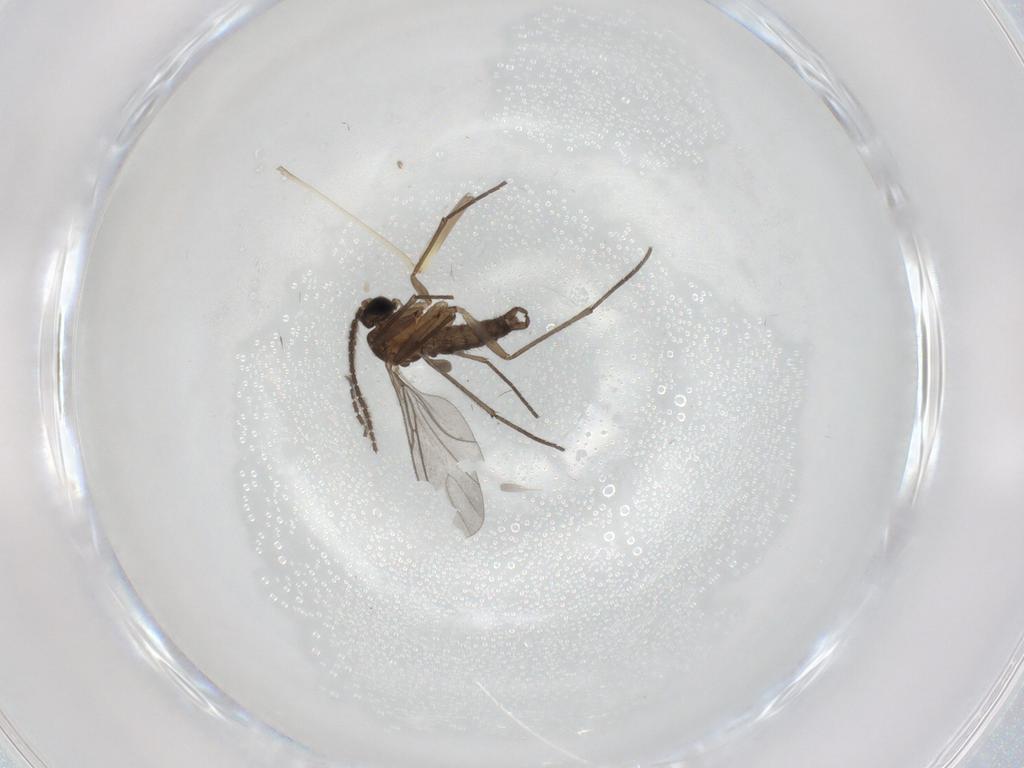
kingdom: Animalia
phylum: Arthropoda
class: Insecta
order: Diptera
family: Sciaridae
